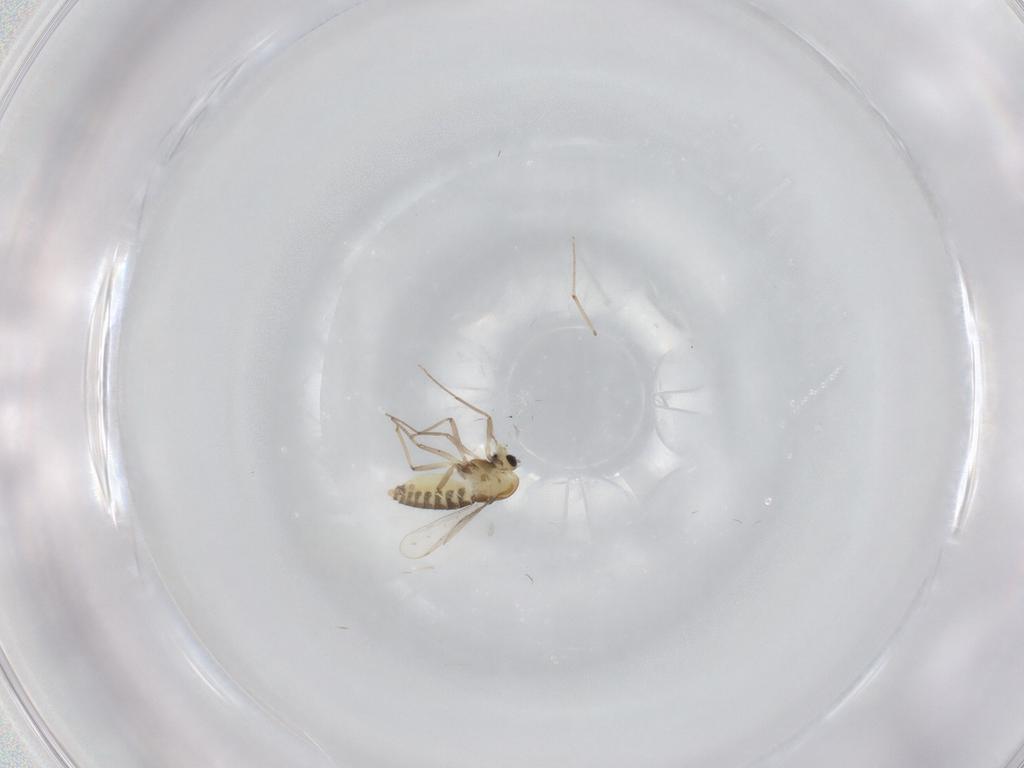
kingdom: Animalia
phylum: Arthropoda
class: Insecta
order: Diptera
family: Chironomidae
